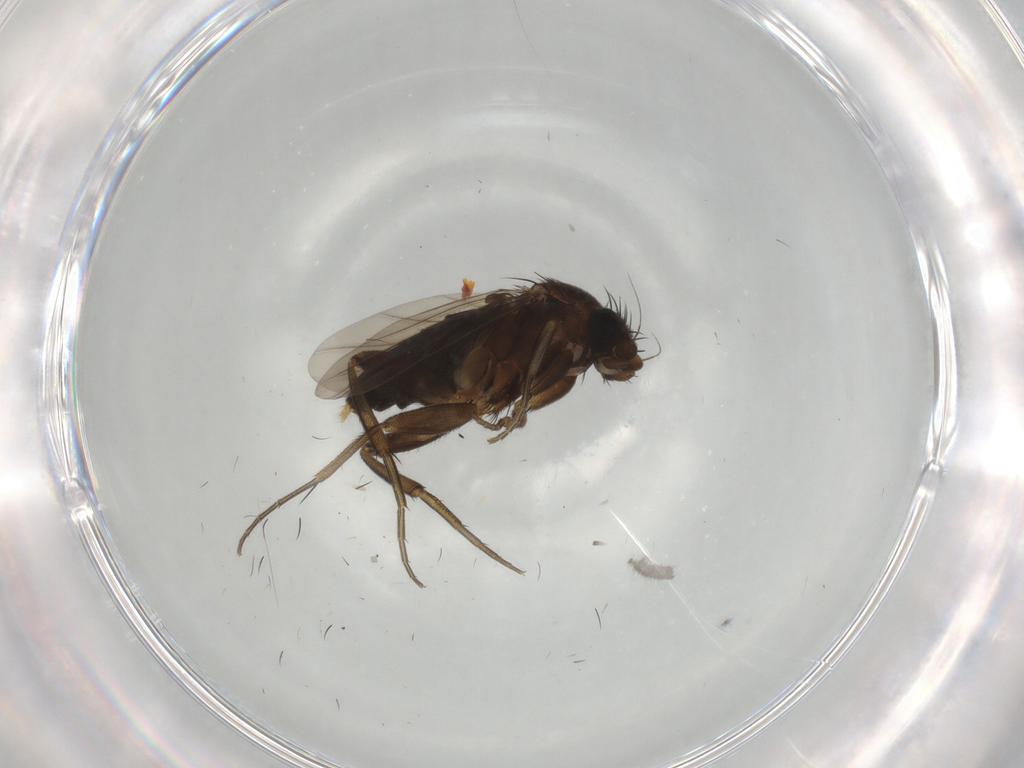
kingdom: Animalia
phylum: Arthropoda
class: Insecta
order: Diptera
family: Phoridae
